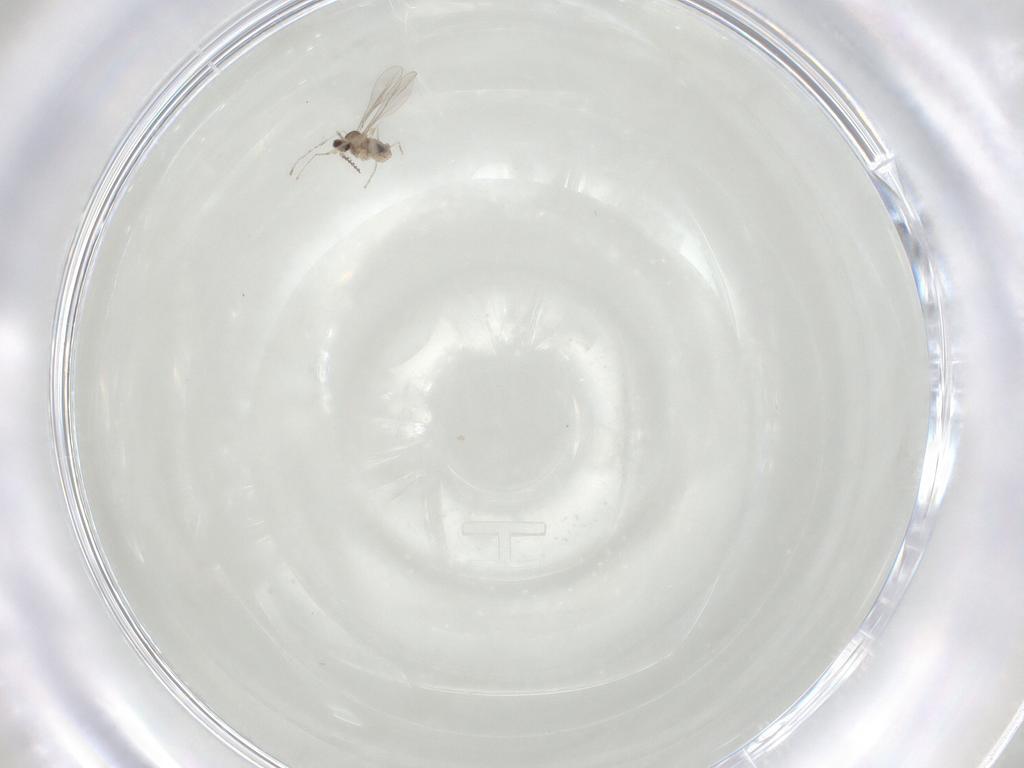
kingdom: Animalia
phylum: Arthropoda
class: Insecta
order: Diptera
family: Cecidomyiidae
